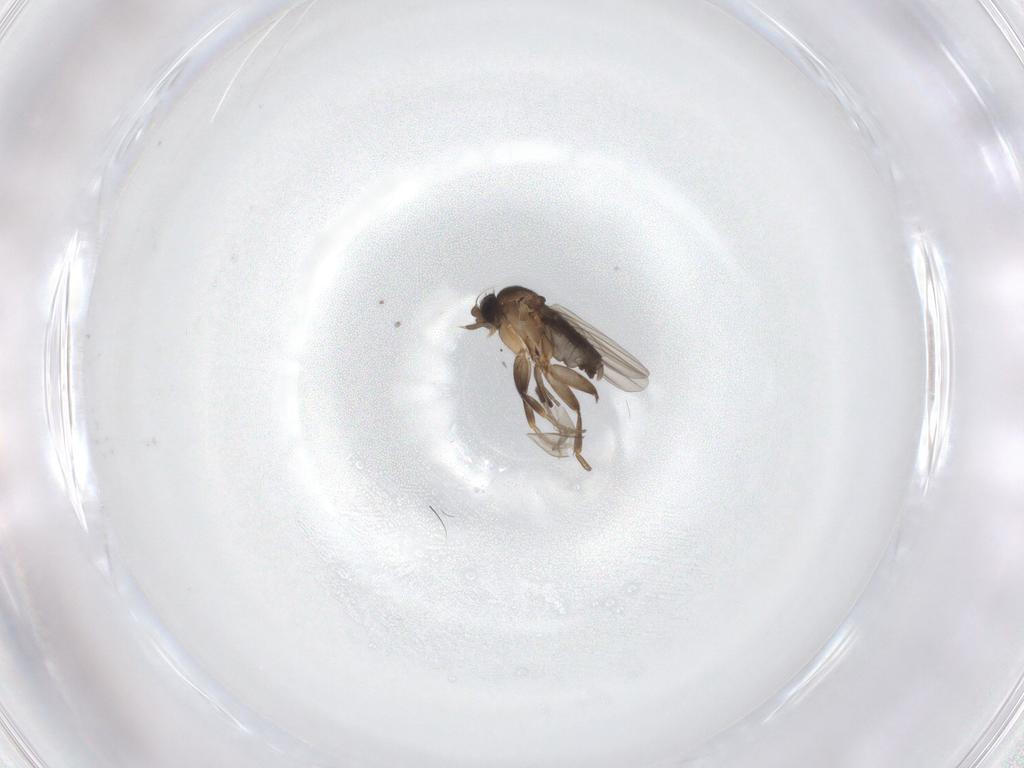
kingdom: Animalia
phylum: Arthropoda
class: Insecta
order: Diptera
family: Phoridae
